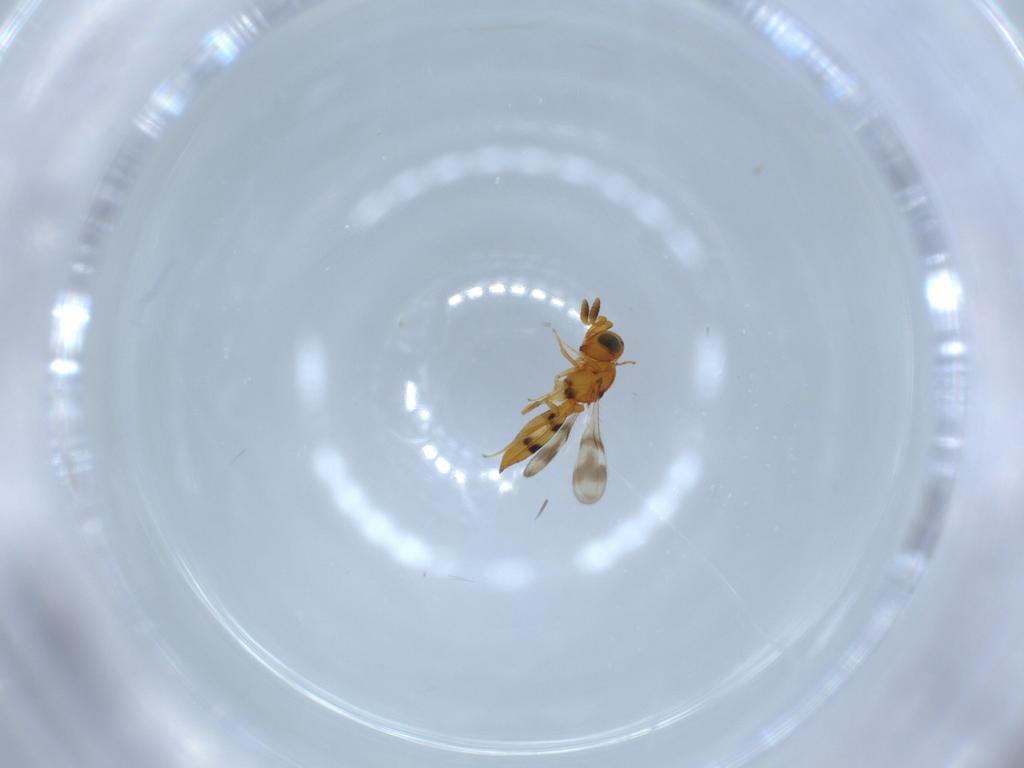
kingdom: Animalia
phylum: Arthropoda
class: Insecta
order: Hymenoptera
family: Scelionidae
